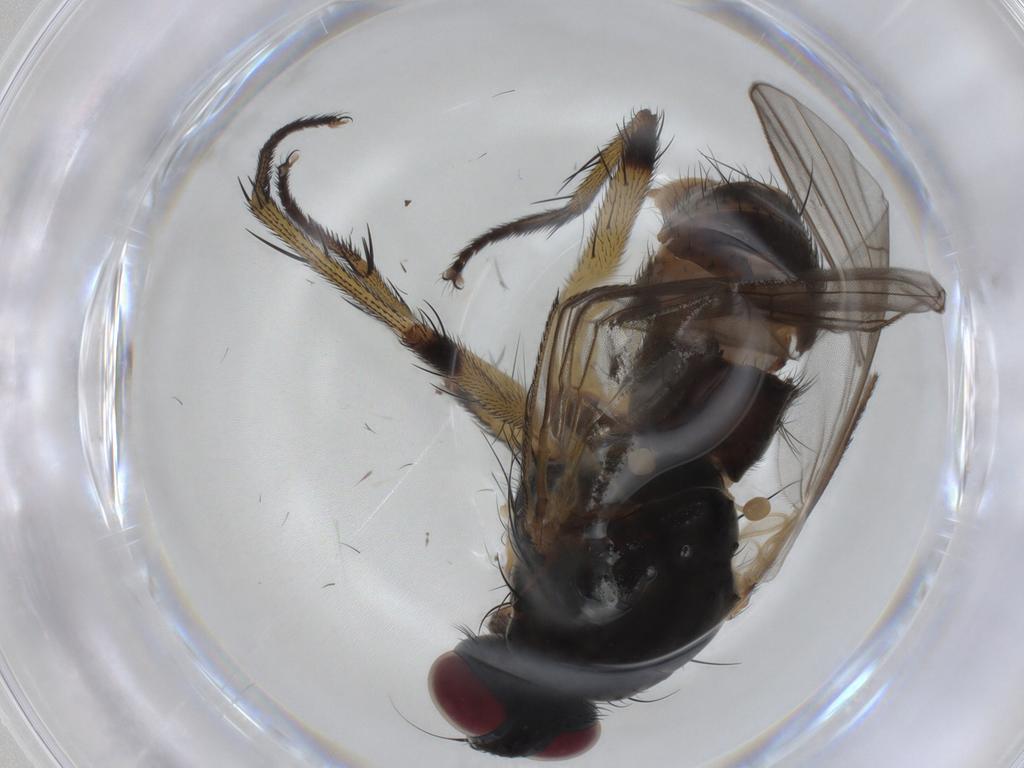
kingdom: Animalia
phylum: Arthropoda
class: Insecta
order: Diptera
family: Muscidae
